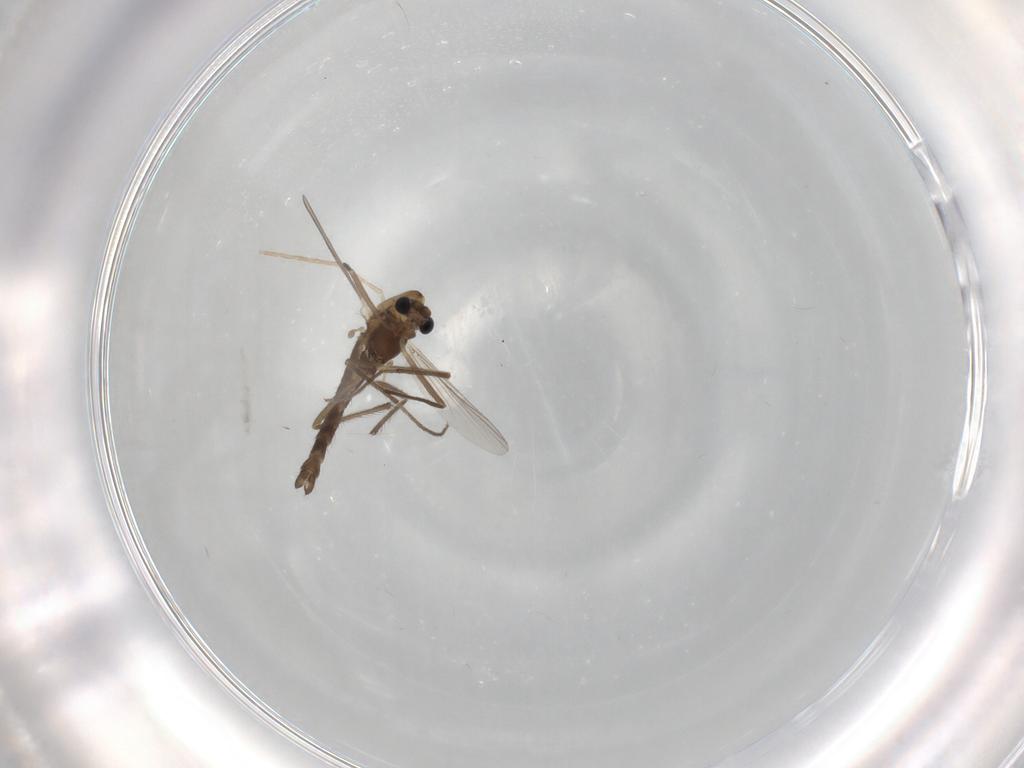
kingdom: Animalia
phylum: Arthropoda
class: Insecta
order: Diptera
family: Chironomidae
